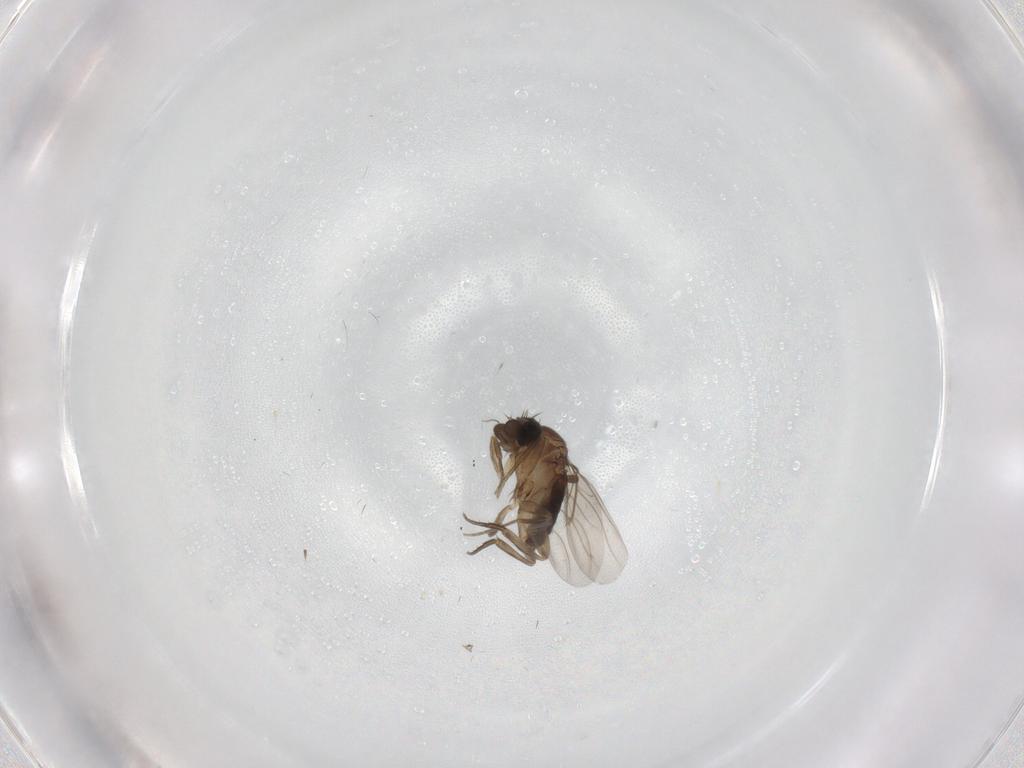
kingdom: Animalia
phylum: Arthropoda
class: Insecta
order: Diptera
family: Phoridae
